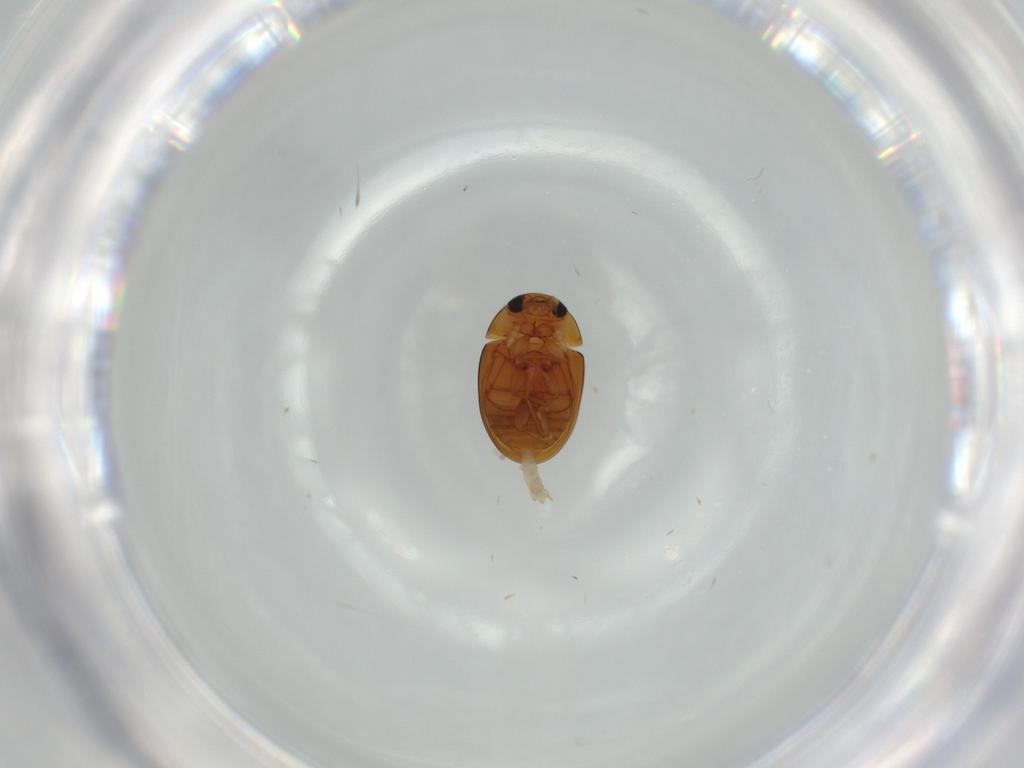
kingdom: Animalia
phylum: Arthropoda
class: Insecta
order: Coleoptera
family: Phalacridae
